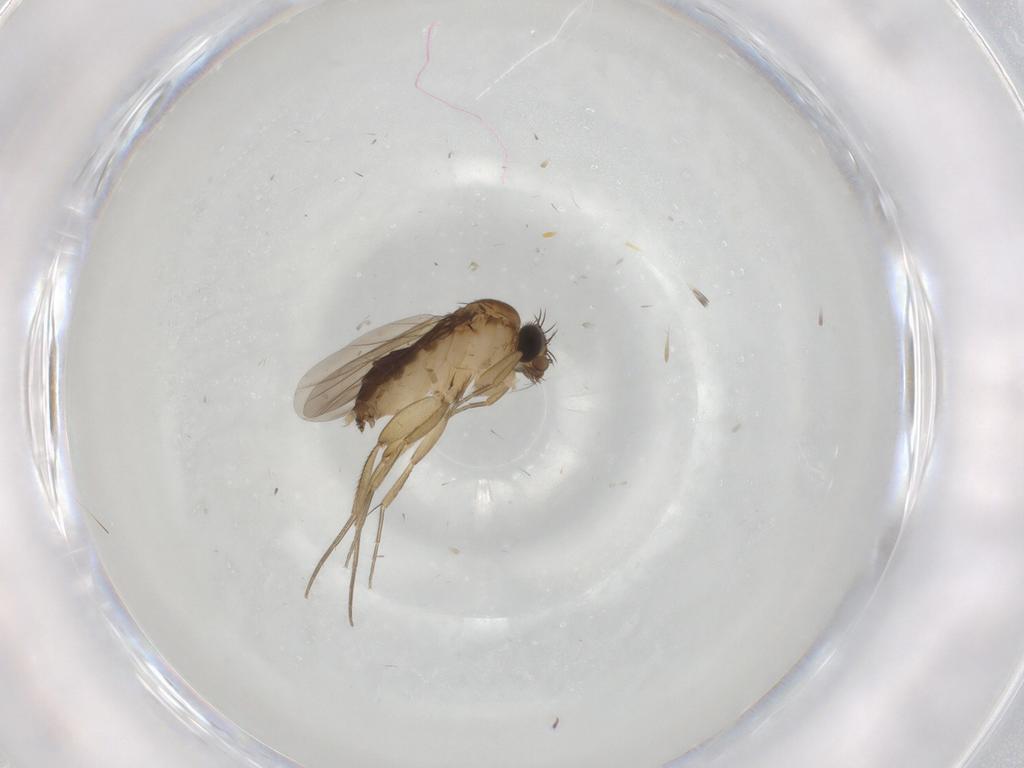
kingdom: Animalia
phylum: Arthropoda
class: Insecta
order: Diptera
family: Phoridae
